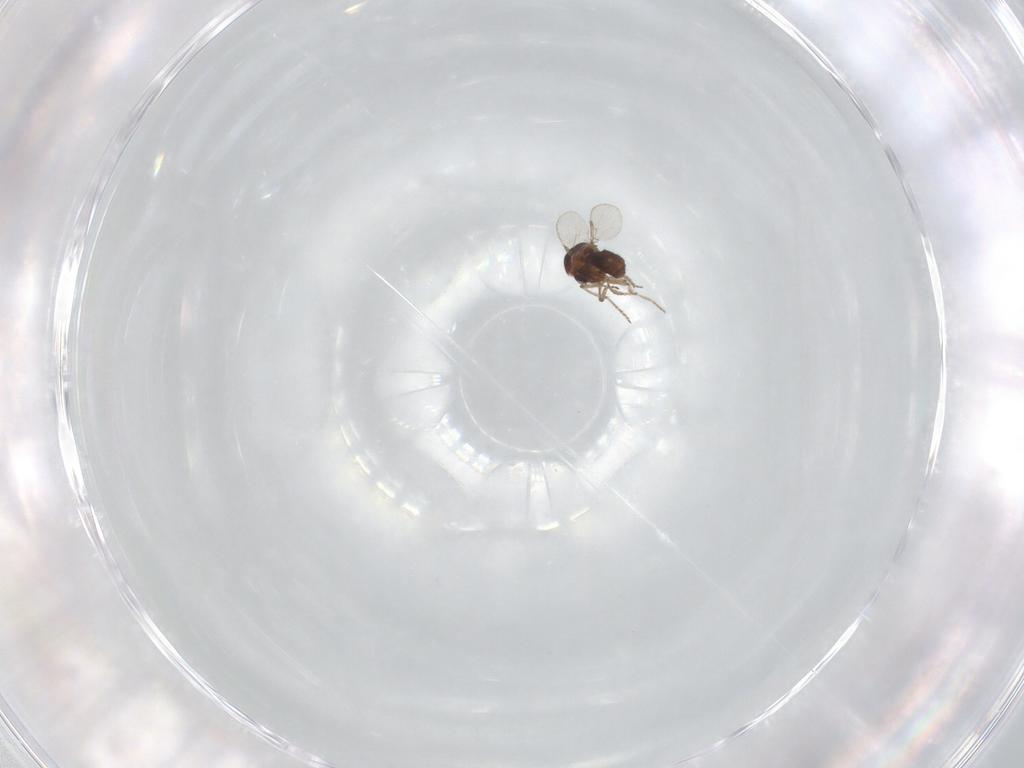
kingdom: Animalia
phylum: Arthropoda
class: Insecta
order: Diptera
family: Ceratopogonidae
